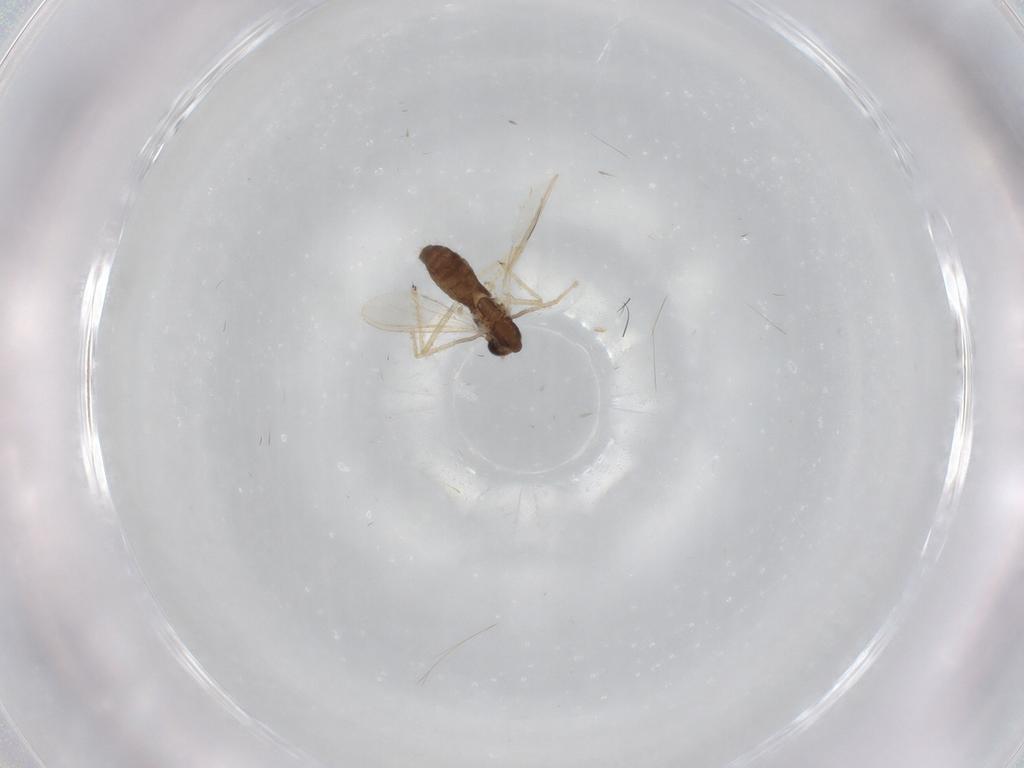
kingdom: Animalia
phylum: Arthropoda
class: Insecta
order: Diptera
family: Chironomidae
